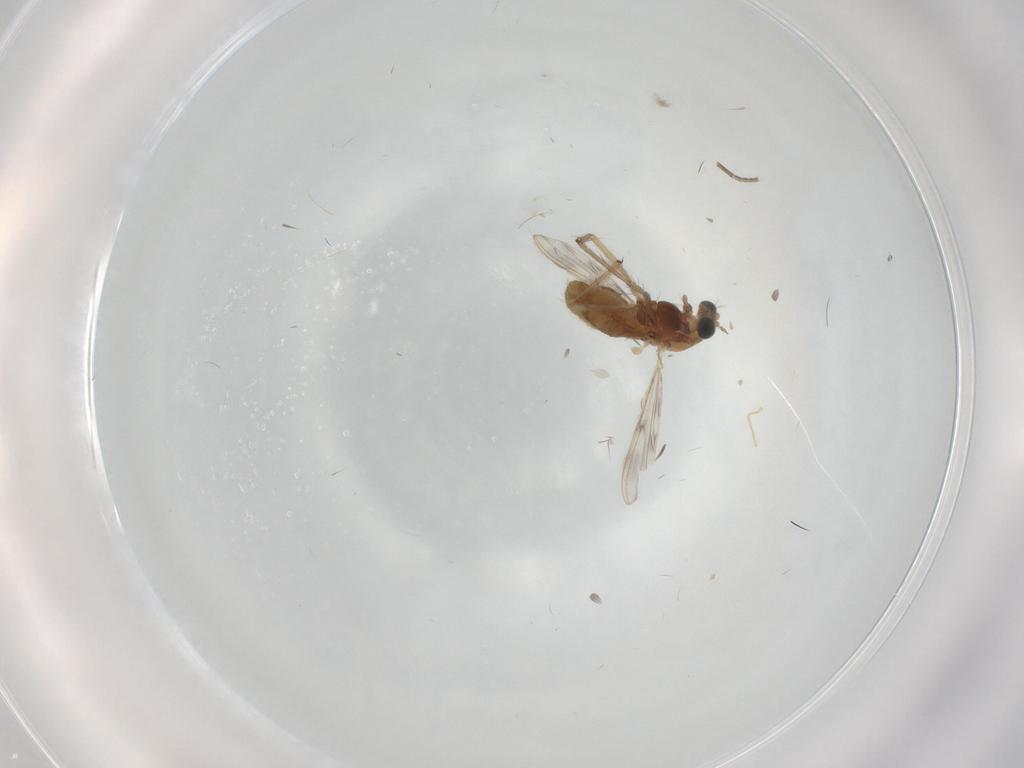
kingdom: Animalia
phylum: Arthropoda
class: Insecta
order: Diptera
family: Chironomidae
